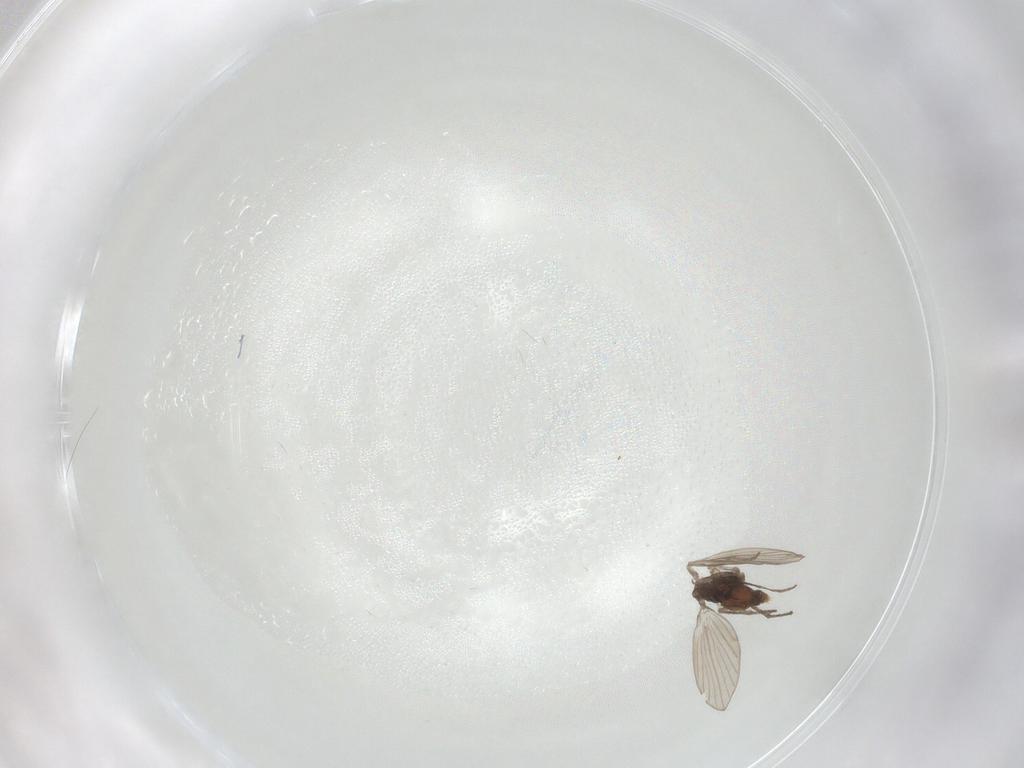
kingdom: Animalia
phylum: Arthropoda
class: Insecta
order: Diptera
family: Psychodidae
